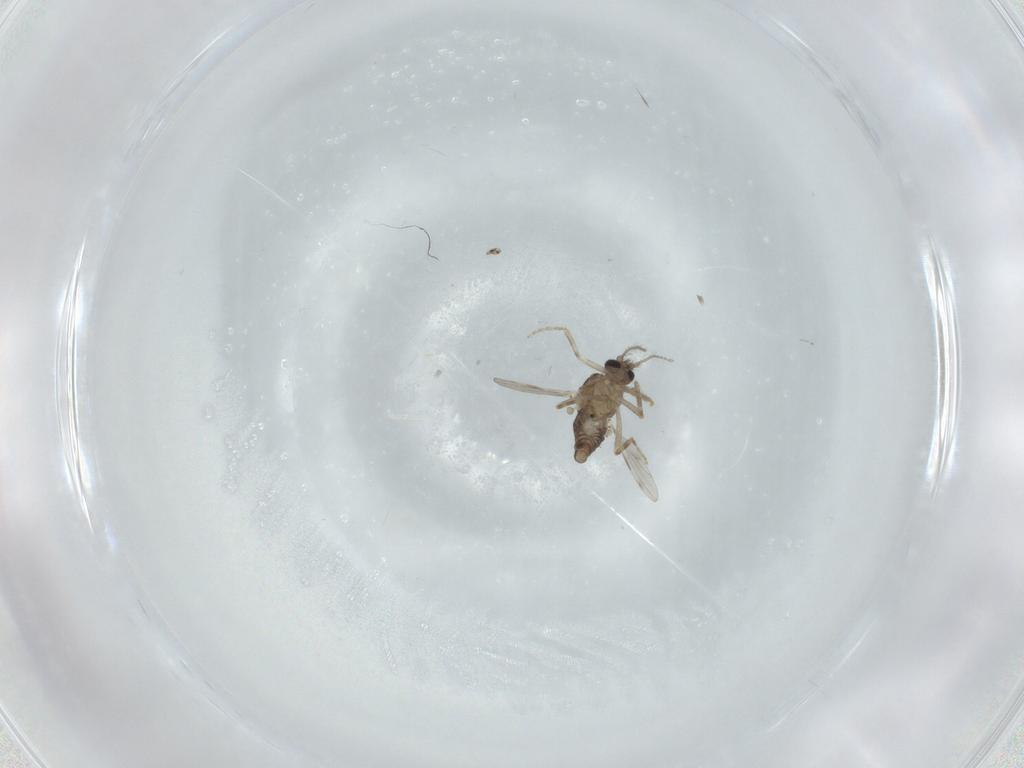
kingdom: Animalia
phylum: Arthropoda
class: Insecta
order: Diptera
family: Ceratopogonidae
